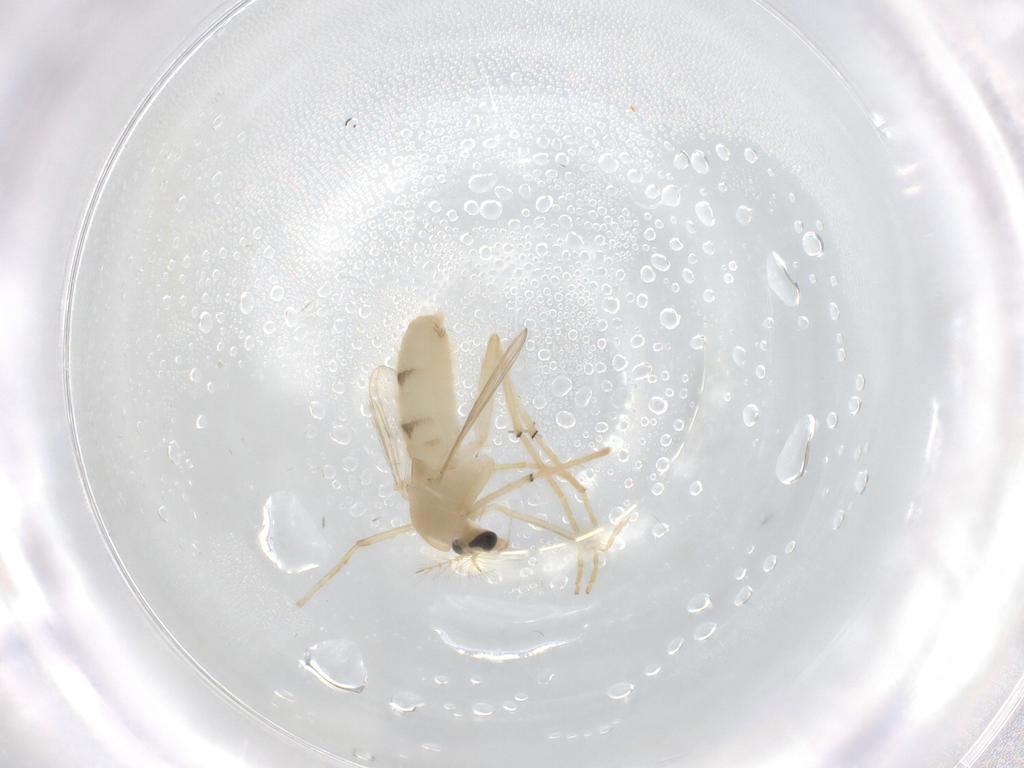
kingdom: Animalia
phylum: Arthropoda
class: Insecta
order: Diptera
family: Chironomidae
